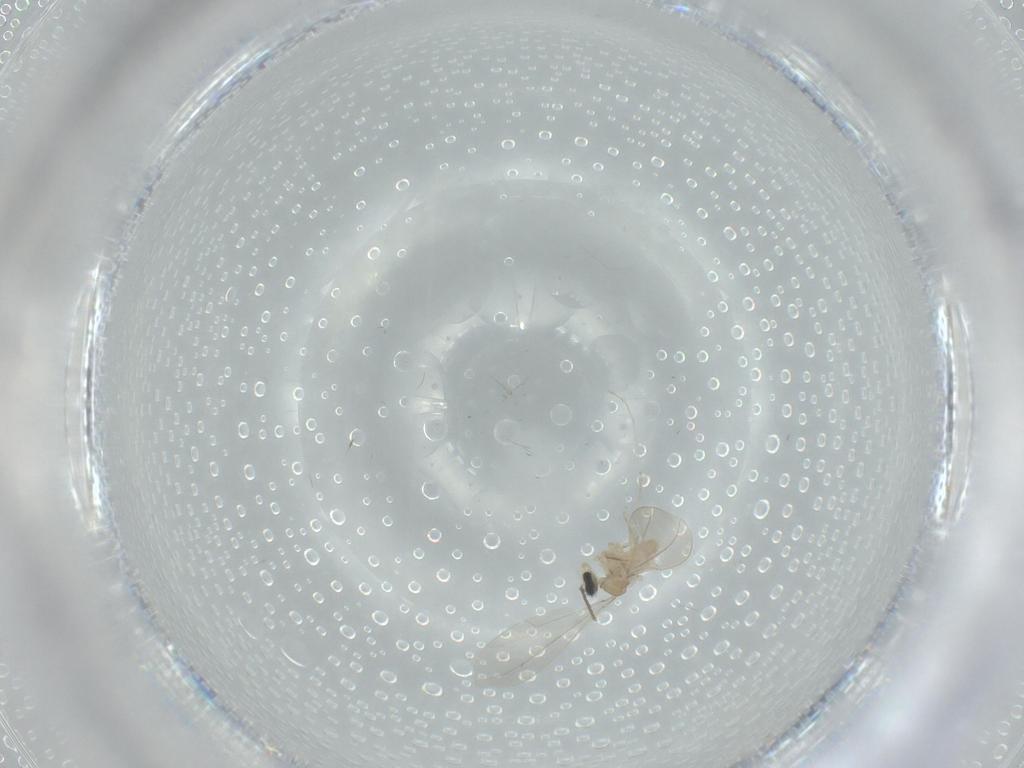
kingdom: Animalia
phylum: Arthropoda
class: Insecta
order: Diptera
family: Cecidomyiidae
